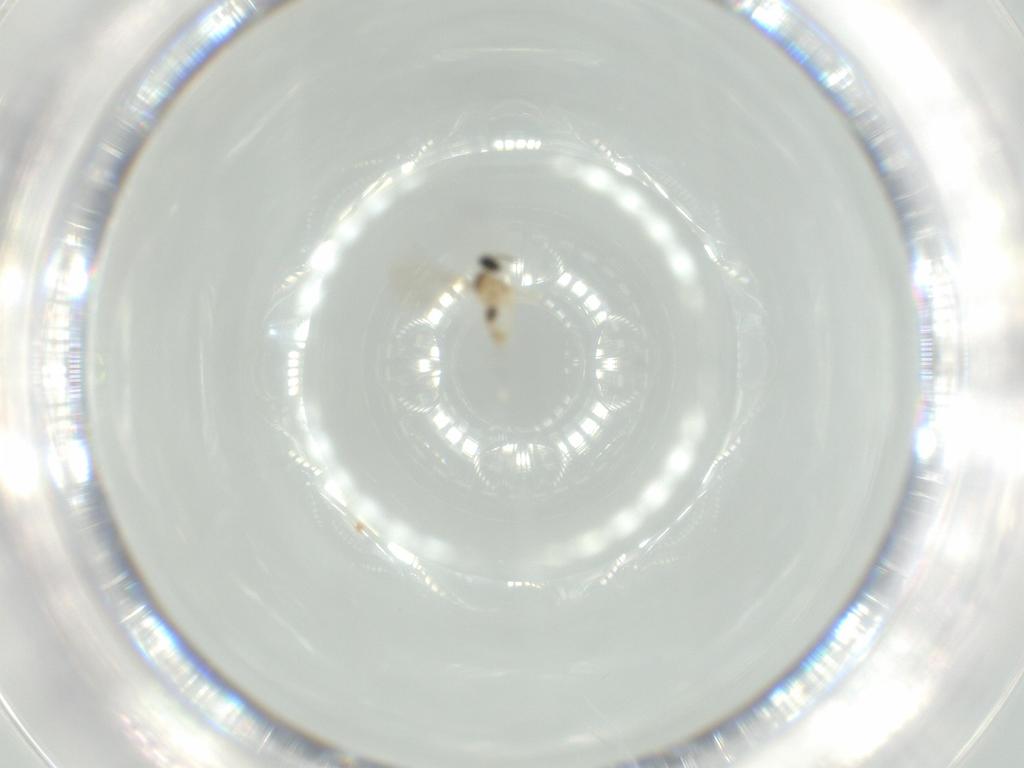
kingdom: Animalia
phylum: Arthropoda
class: Insecta
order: Diptera
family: Cecidomyiidae
